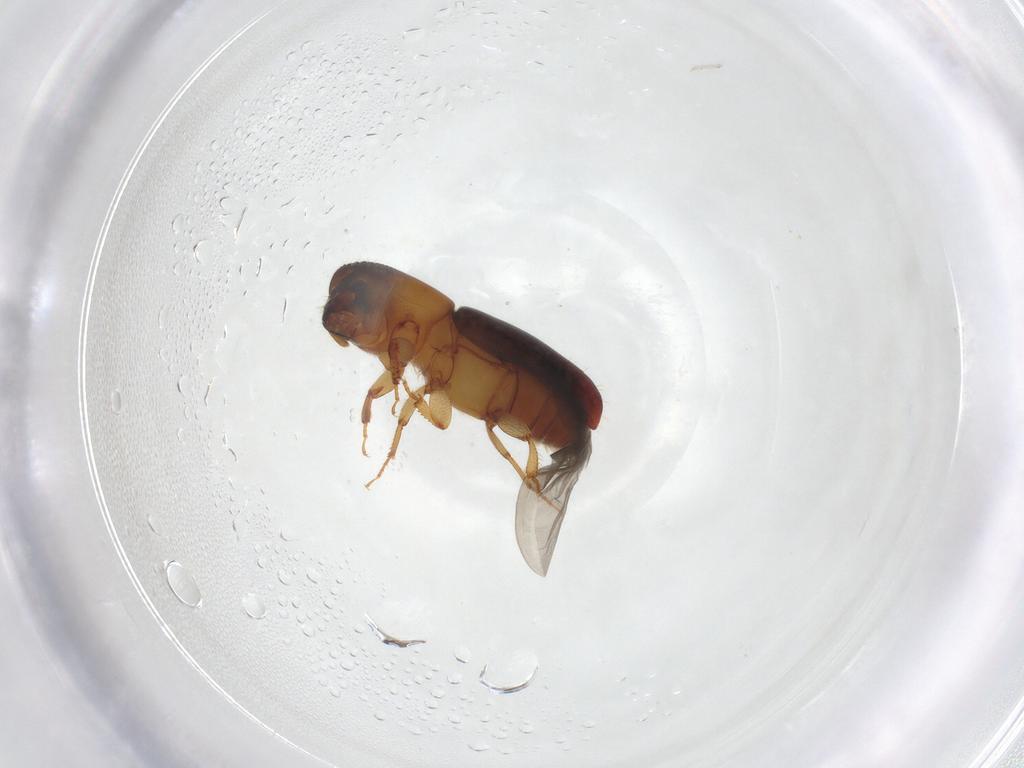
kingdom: Animalia
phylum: Arthropoda
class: Insecta
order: Coleoptera
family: Curculionidae
